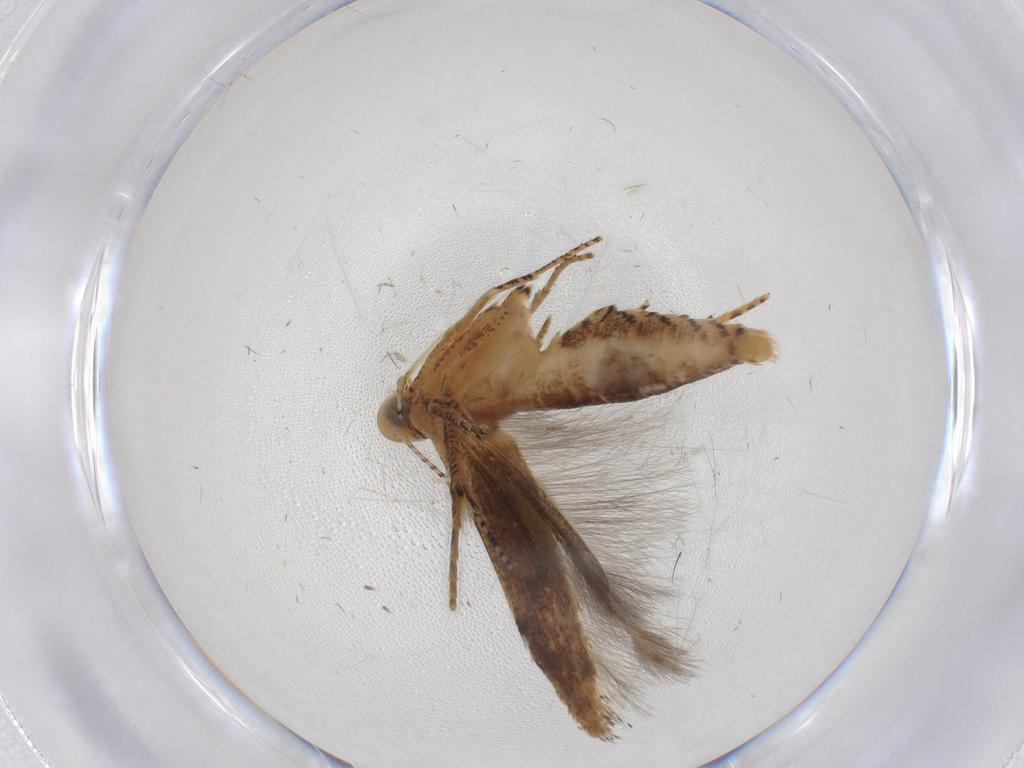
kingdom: Animalia
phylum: Arthropoda
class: Insecta
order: Lepidoptera
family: Gelechiidae
